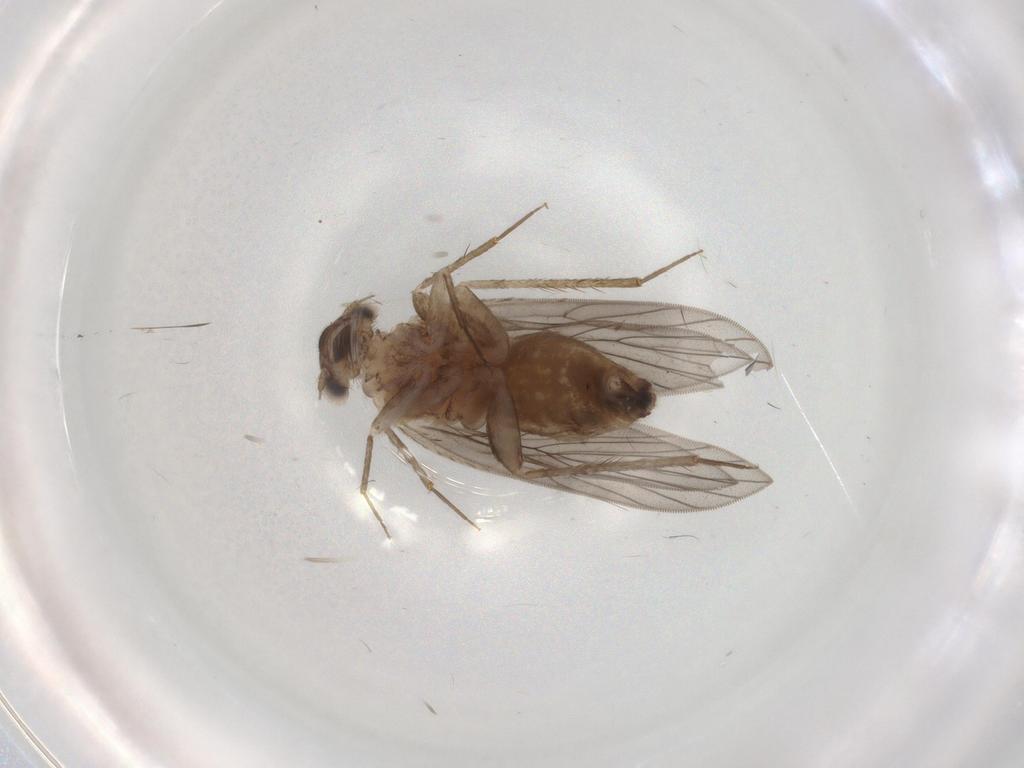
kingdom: Animalia
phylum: Arthropoda
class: Insecta
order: Psocodea
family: Lepidopsocidae
